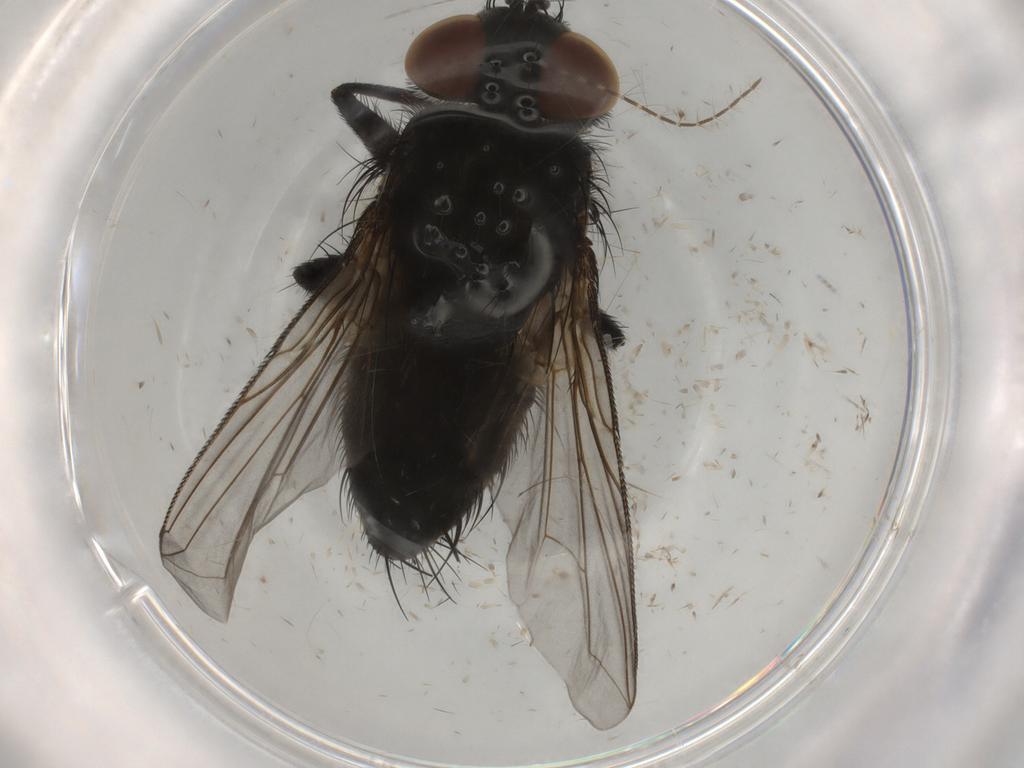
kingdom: Animalia
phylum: Arthropoda
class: Insecta
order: Diptera
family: Tachinidae
